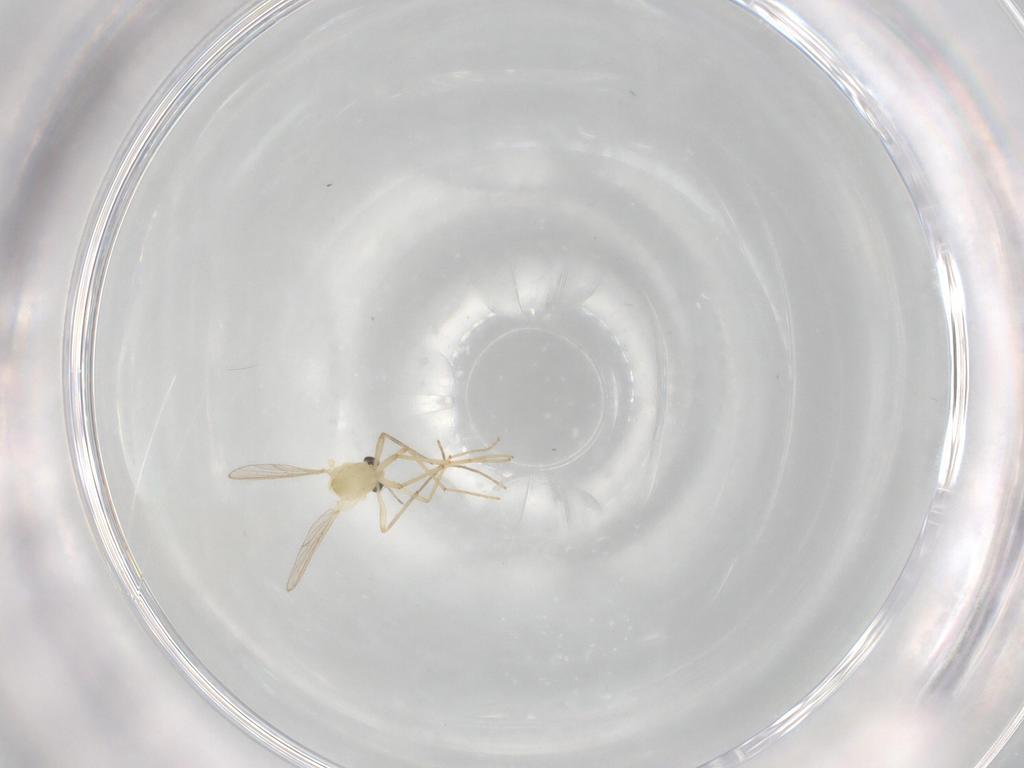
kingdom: Animalia
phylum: Arthropoda
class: Insecta
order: Diptera
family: Chironomidae
